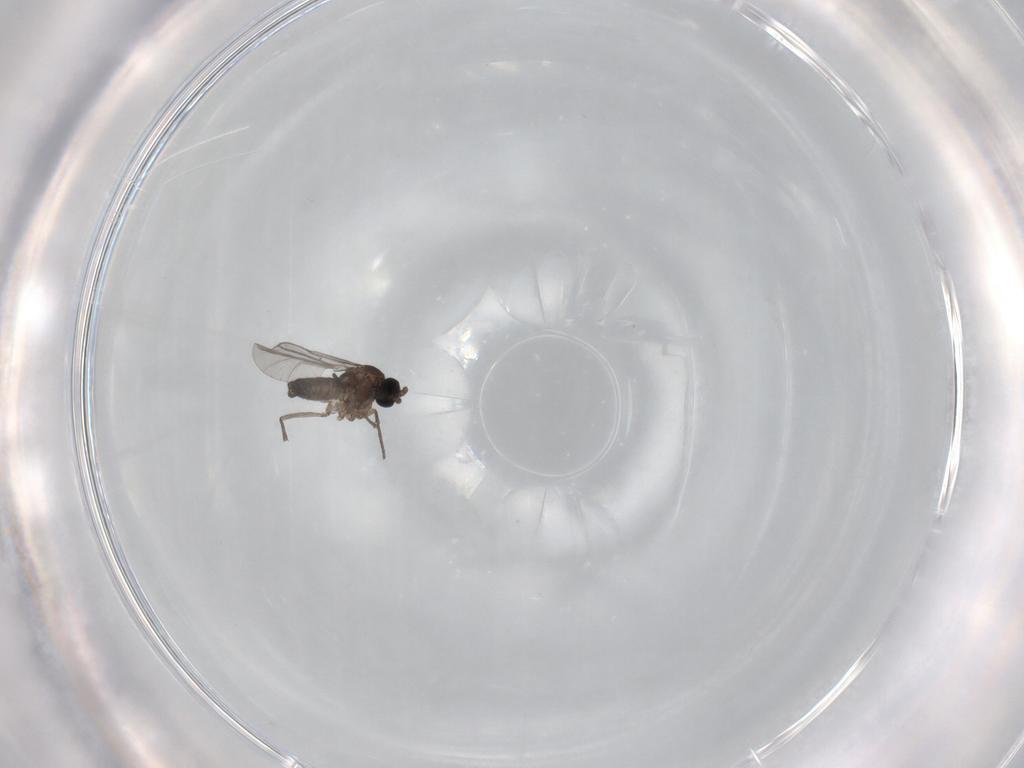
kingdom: Animalia
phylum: Arthropoda
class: Insecta
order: Diptera
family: Sciaridae
